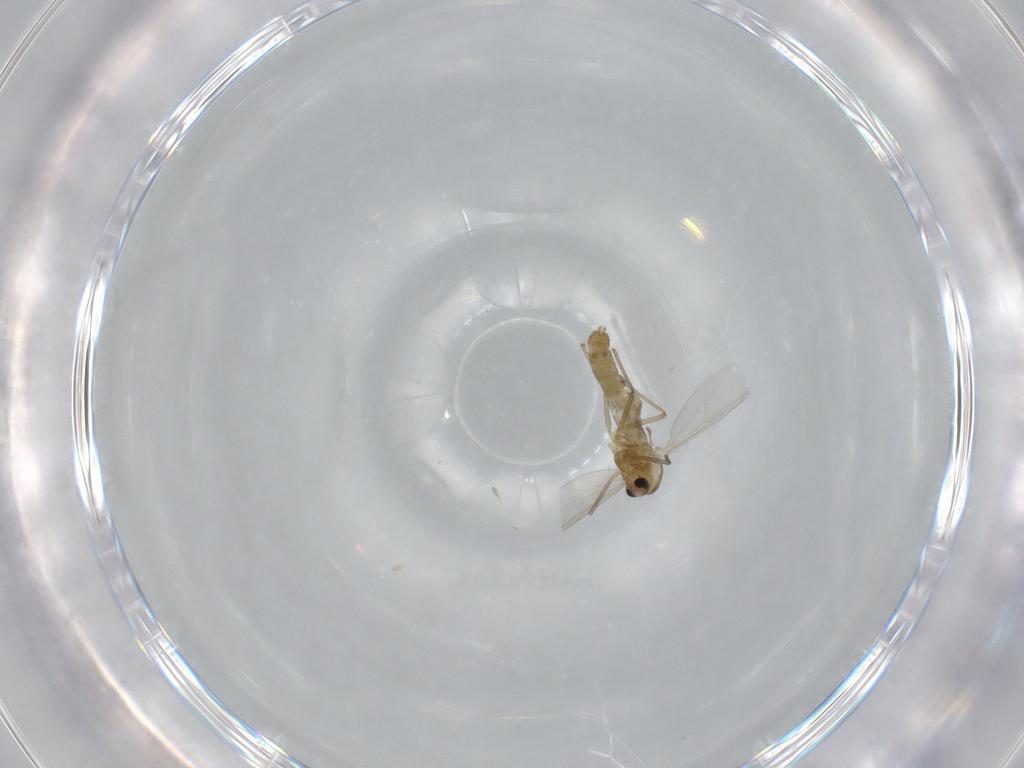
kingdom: Animalia
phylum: Arthropoda
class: Insecta
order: Diptera
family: Chironomidae
